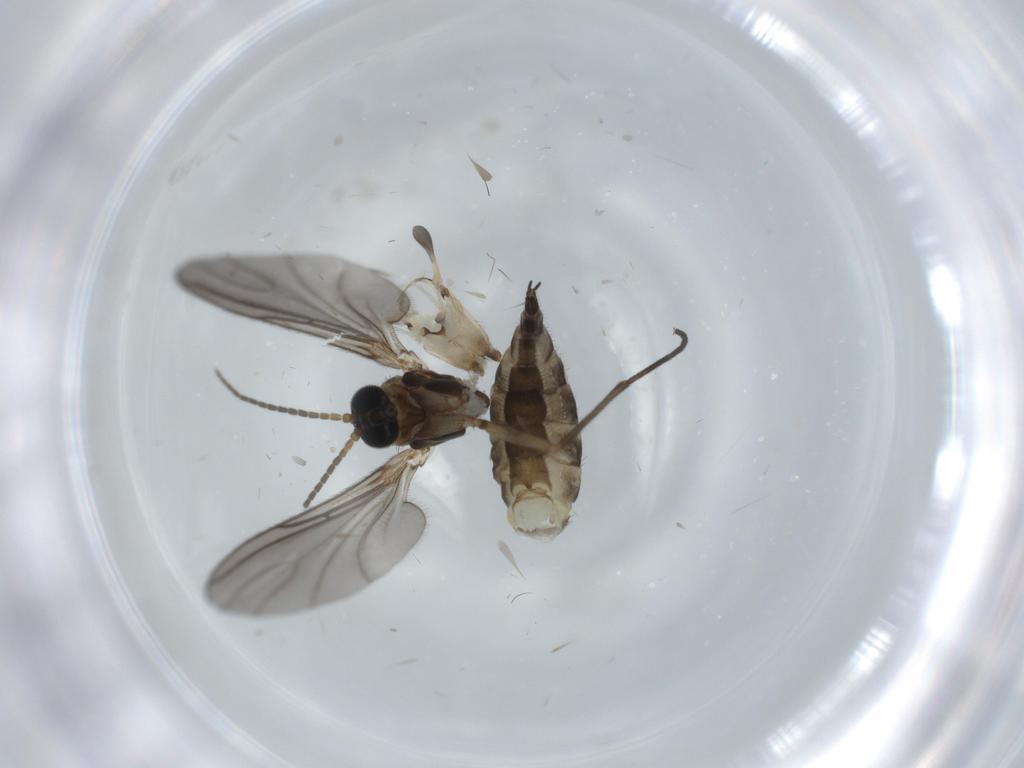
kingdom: Animalia
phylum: Arthropoda
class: Insecta
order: Diptera
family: Sciaridae
